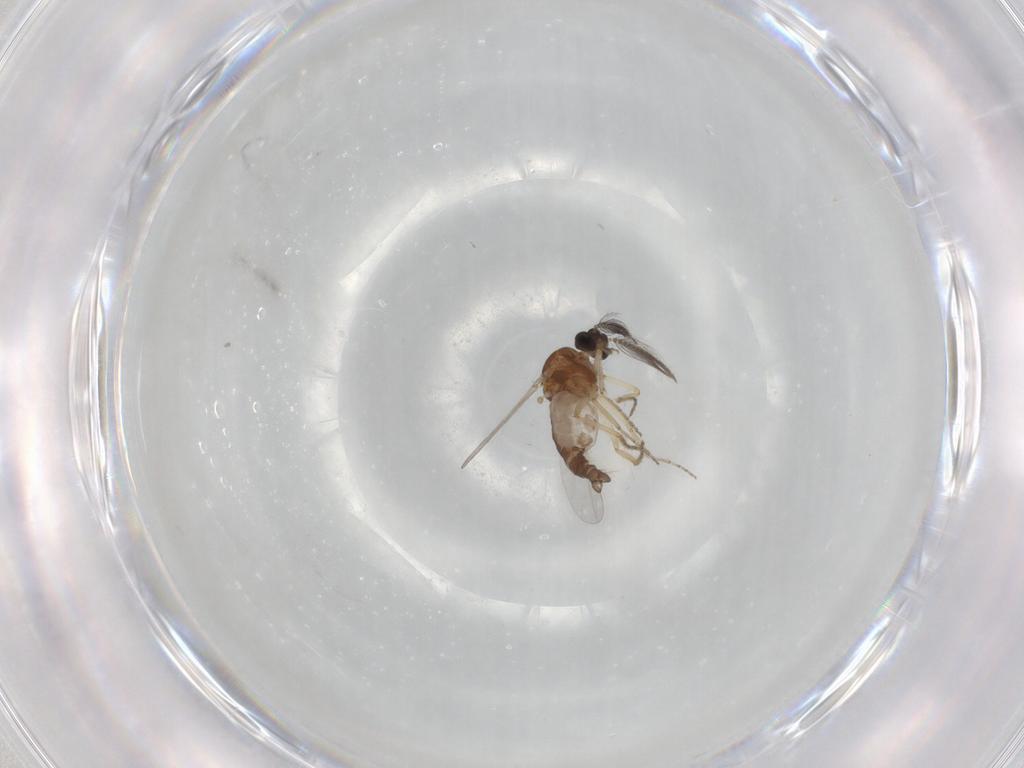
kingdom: Animalia
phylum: Arthropoda
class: Insecta
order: Diptera
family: Ceratopogonidae
